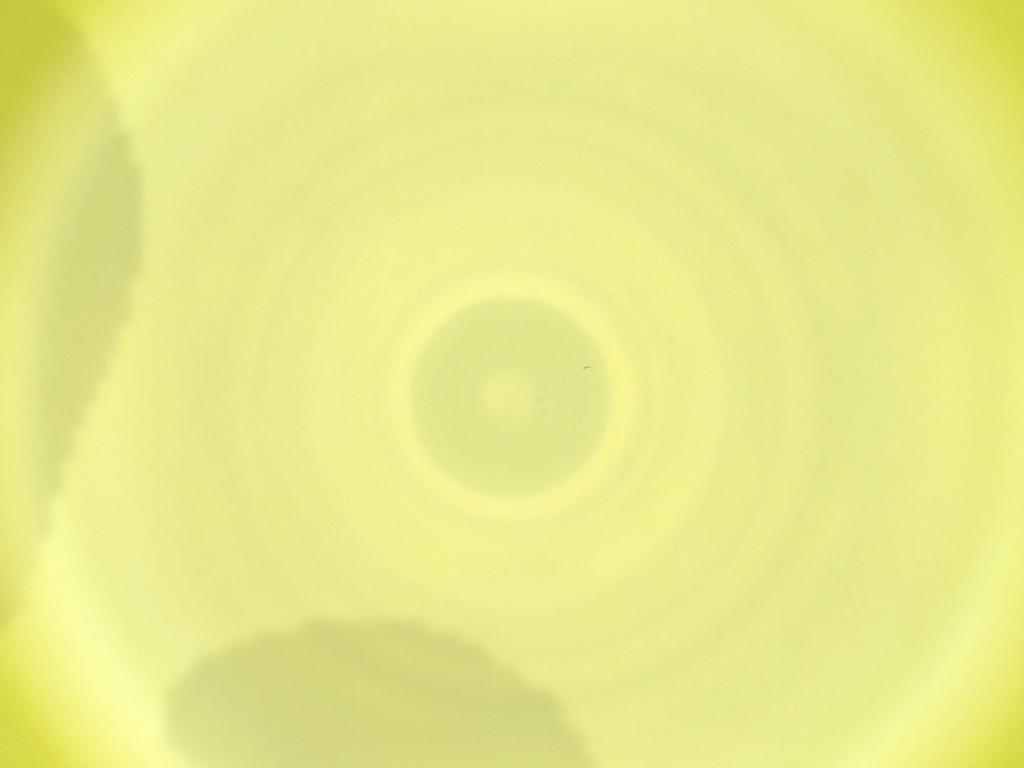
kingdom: Animalia
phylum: Arthropoda
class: Insecta
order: Diptera
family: Cecidomyiidae
